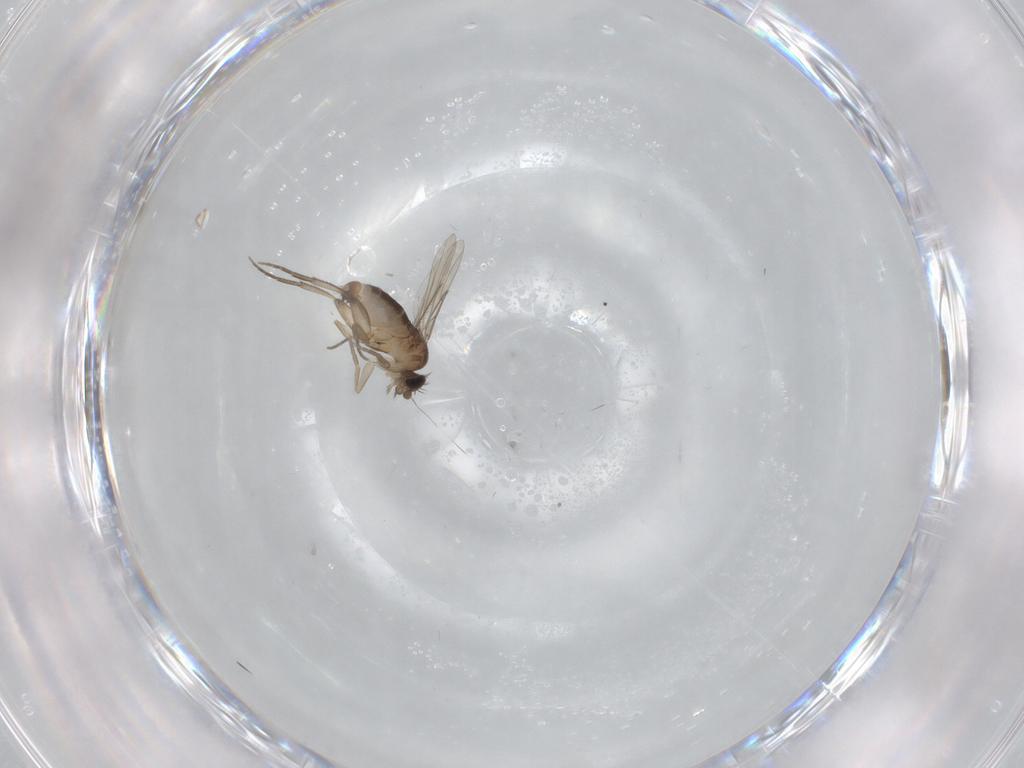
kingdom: Animalia
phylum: Arthropoda
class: Insecta
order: Diptera
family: Phoridae
